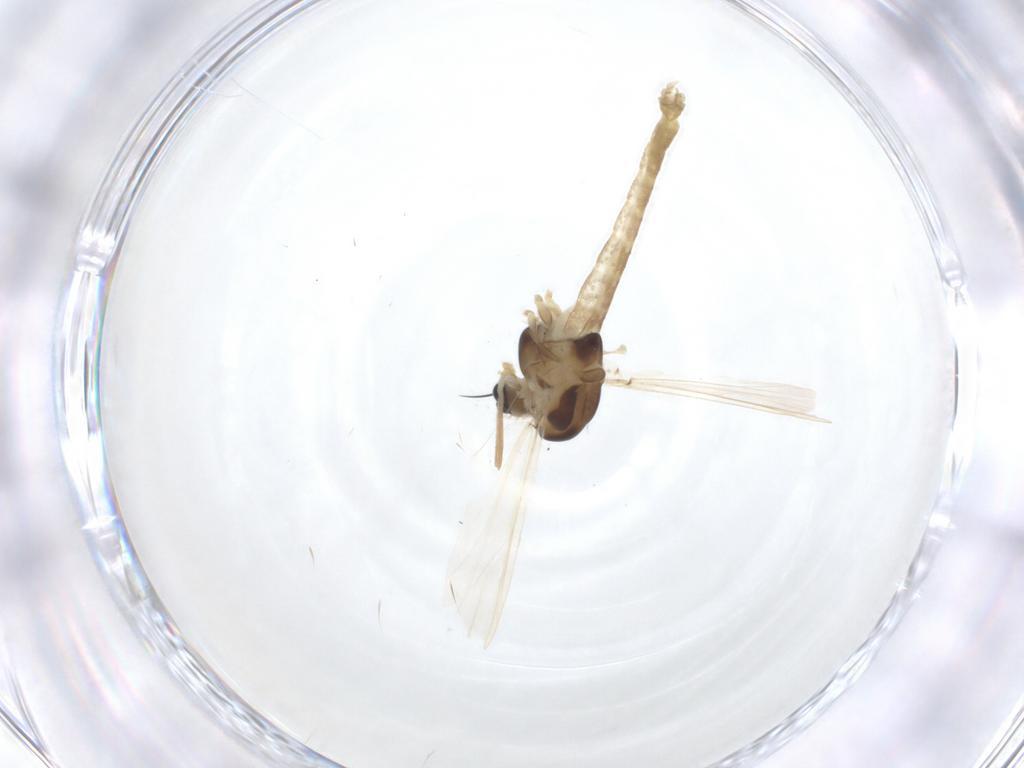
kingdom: Animalia
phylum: Arthropoda
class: Insecta
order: Diptera
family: Chironomidae
